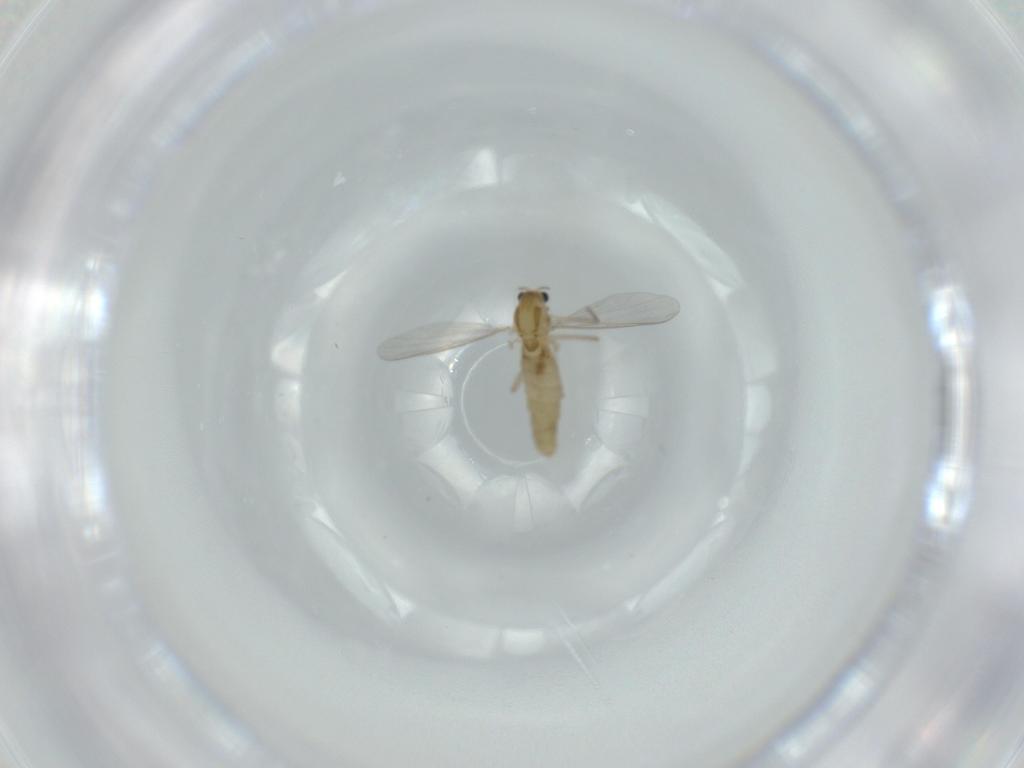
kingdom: Animalia
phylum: Arthropoda
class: Insecta
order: Diptera
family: Chironomidae
